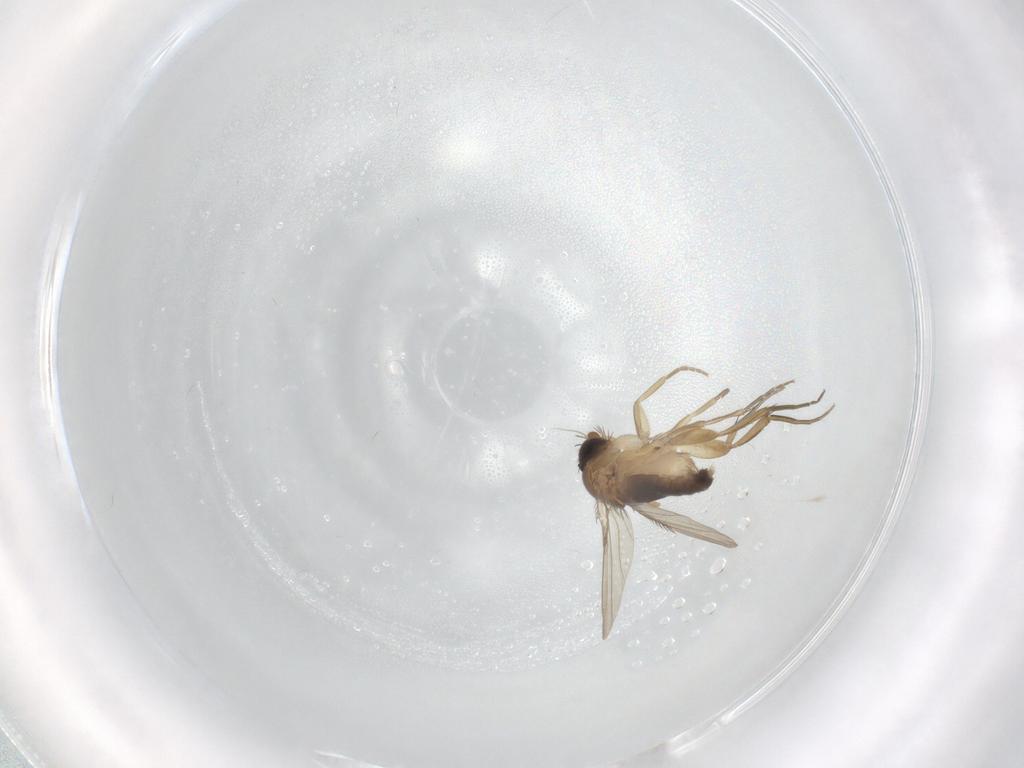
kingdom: Animalia
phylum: Arthropoda
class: Insecta
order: Diptera
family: Phoridae
